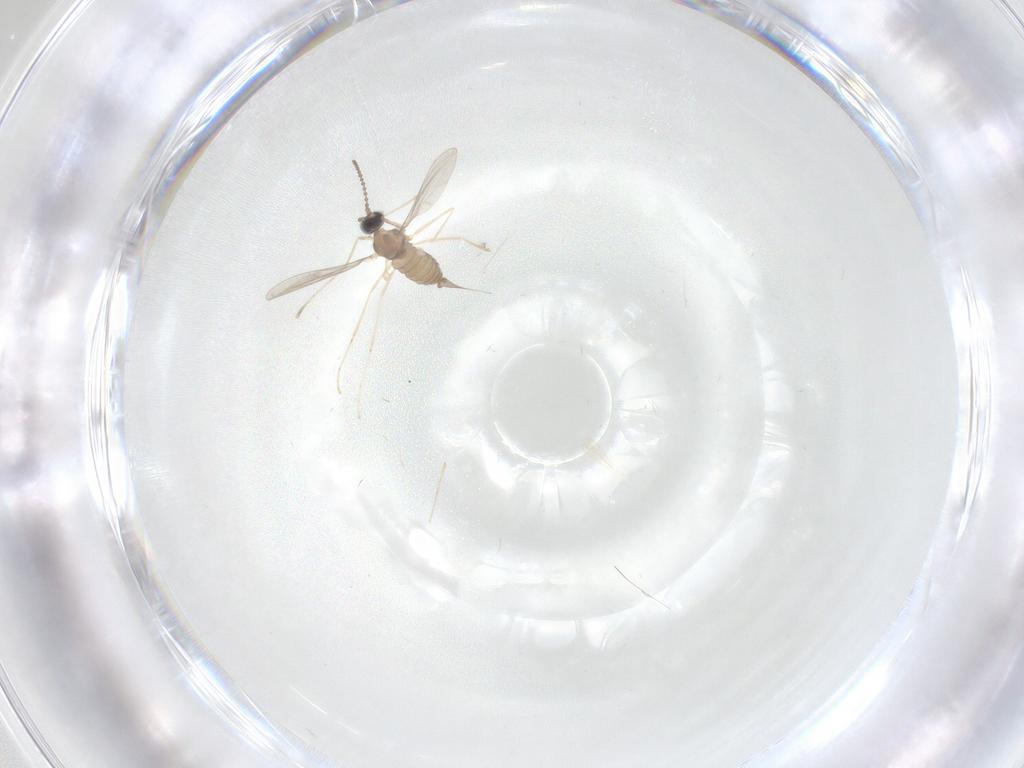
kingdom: Animalia
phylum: Arthropoda
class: Insecta
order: Diptera
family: Cecidomyiidae
